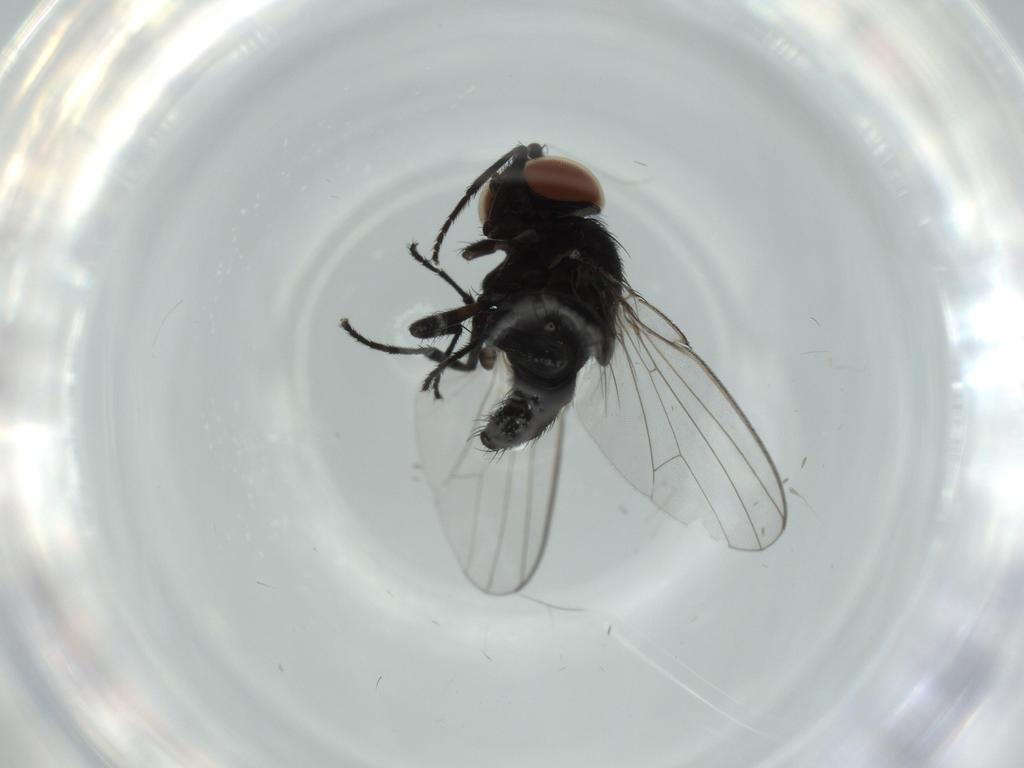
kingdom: Animalia
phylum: Arthropoda
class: Insecta
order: Diptera
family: Milichiidae
